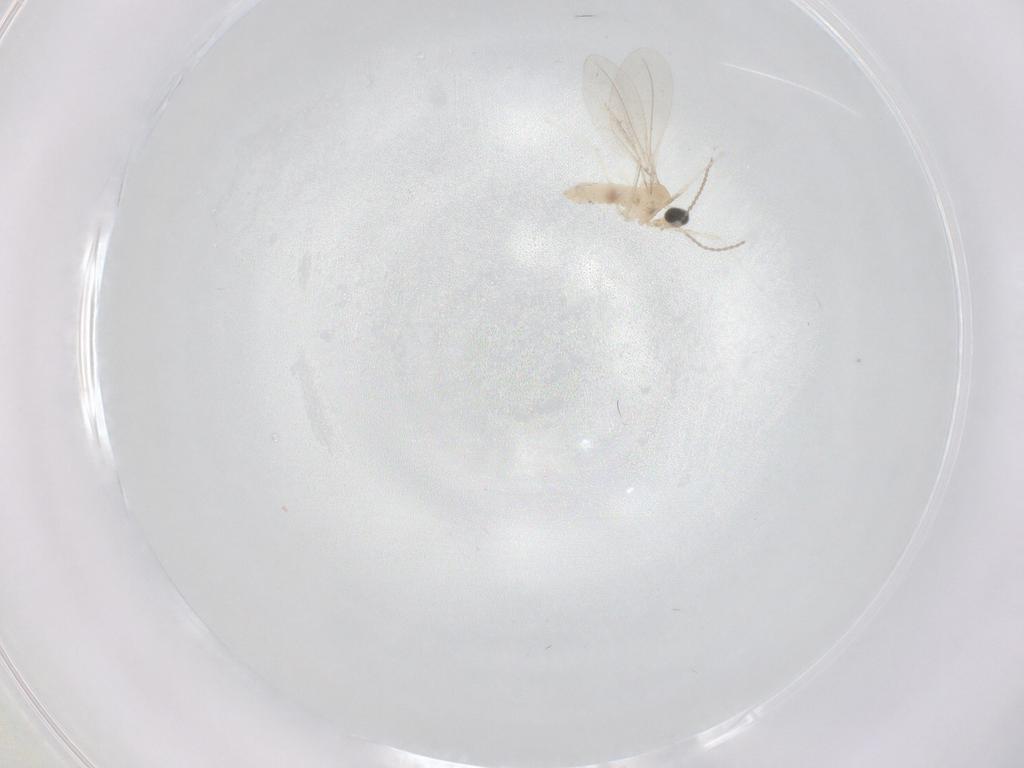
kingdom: Animalia
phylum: Arthropoda
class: Insecta
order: Diptera
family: Cecidomyiidae
